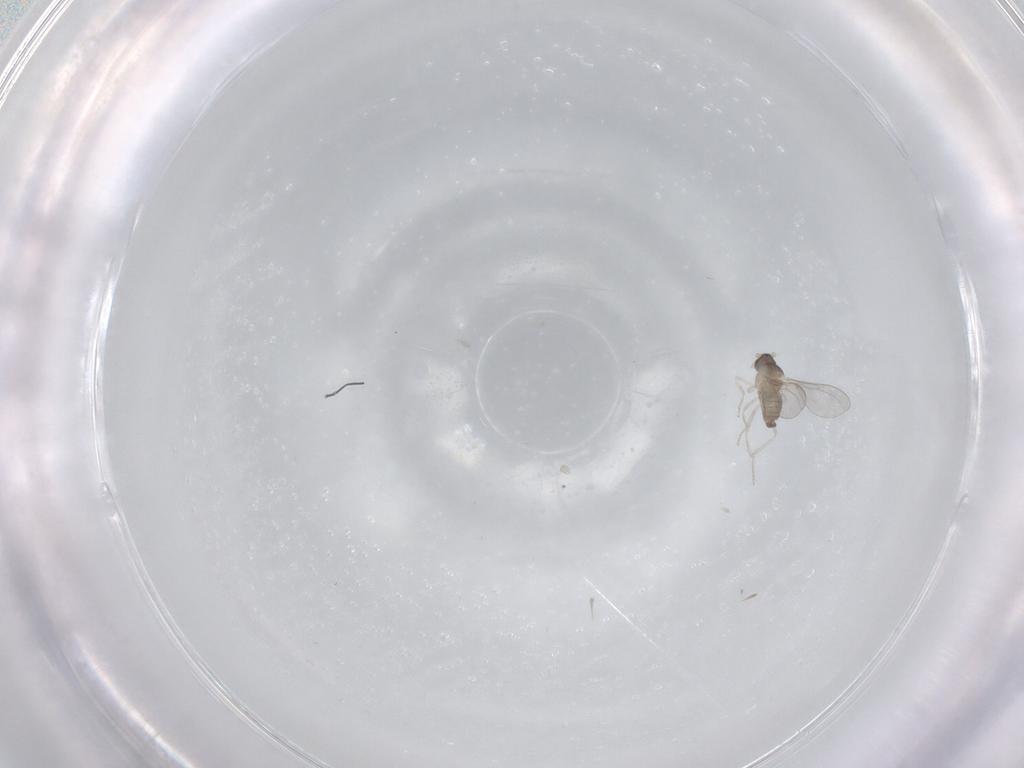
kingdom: Animalia
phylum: Arthropoda
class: Insecta
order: Diptera
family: Cecidomyiidae
